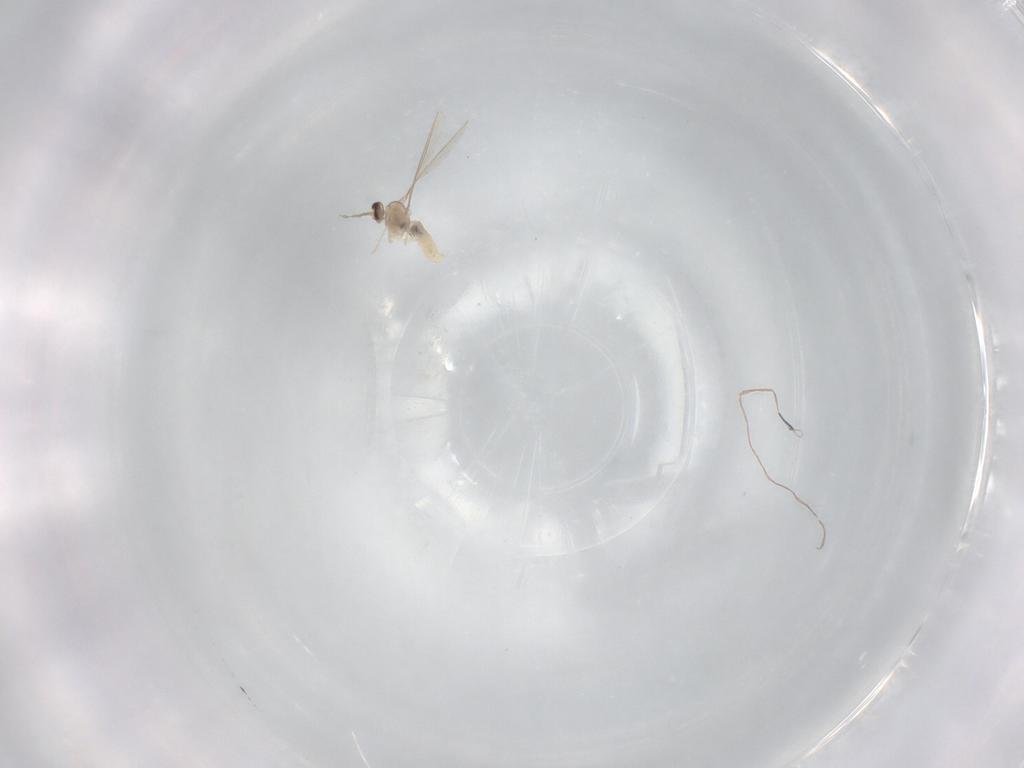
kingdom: Animalia
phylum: Arthropoda
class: Insecta
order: Diptera
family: Cecidomyiidae
